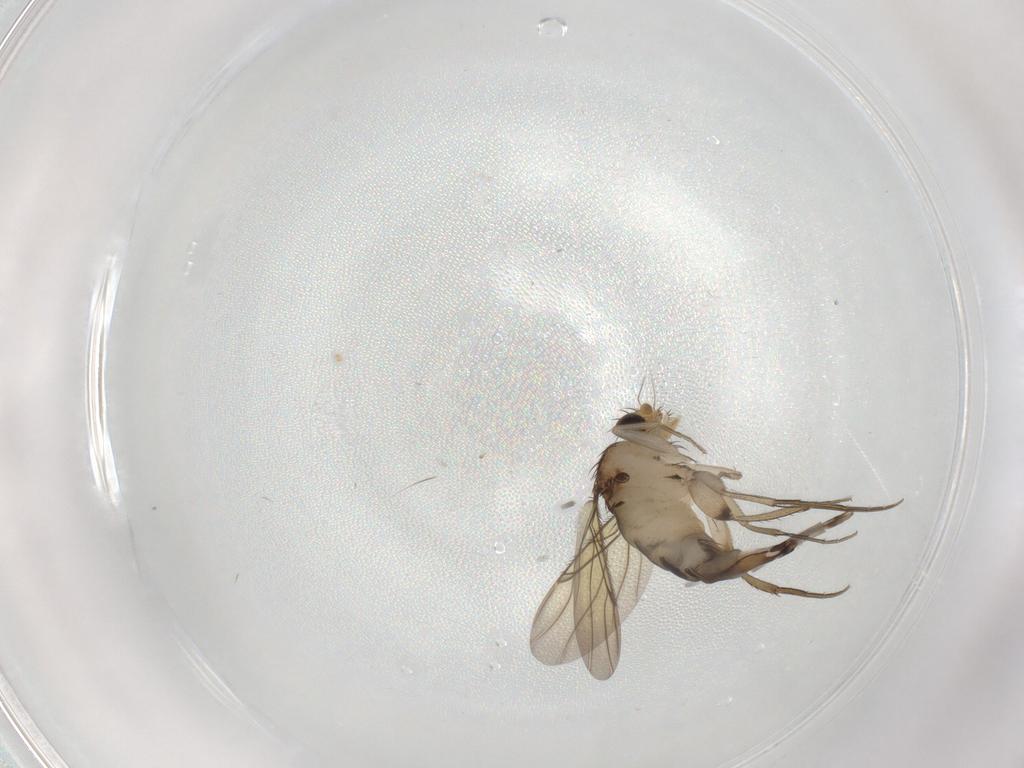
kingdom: Animalia
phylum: Arthropoda
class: Insecta
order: Diptera
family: Phoridae
